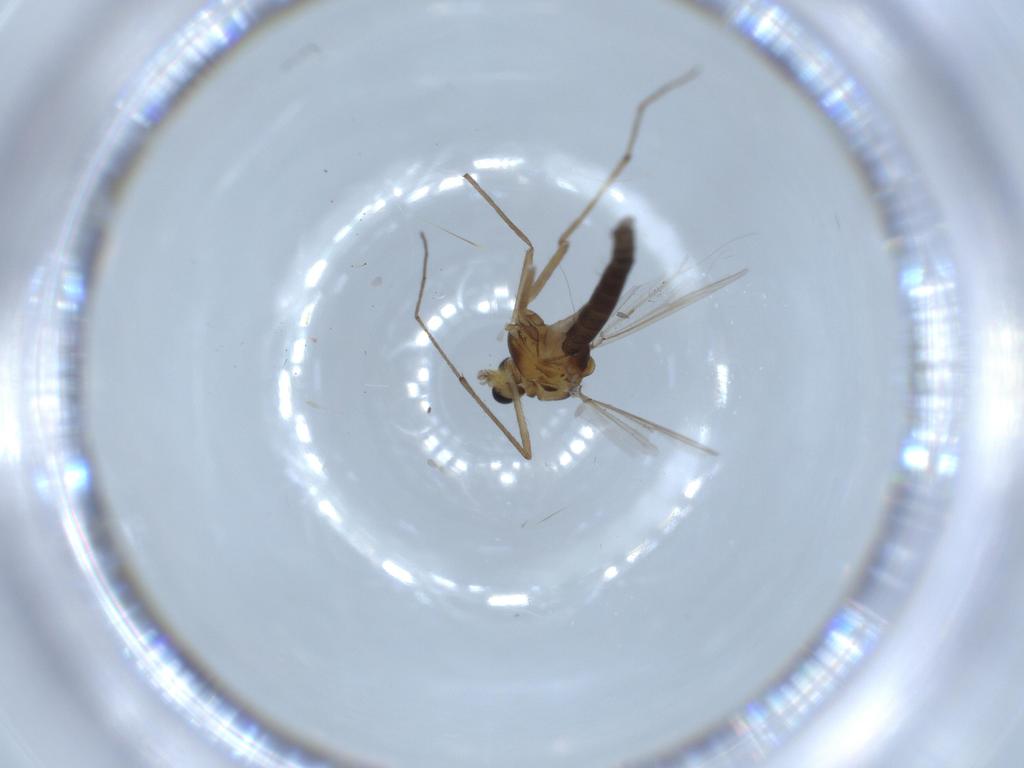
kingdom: Animalia
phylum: Arthropoda
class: Insecta
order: Diptera
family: Chironomidae
